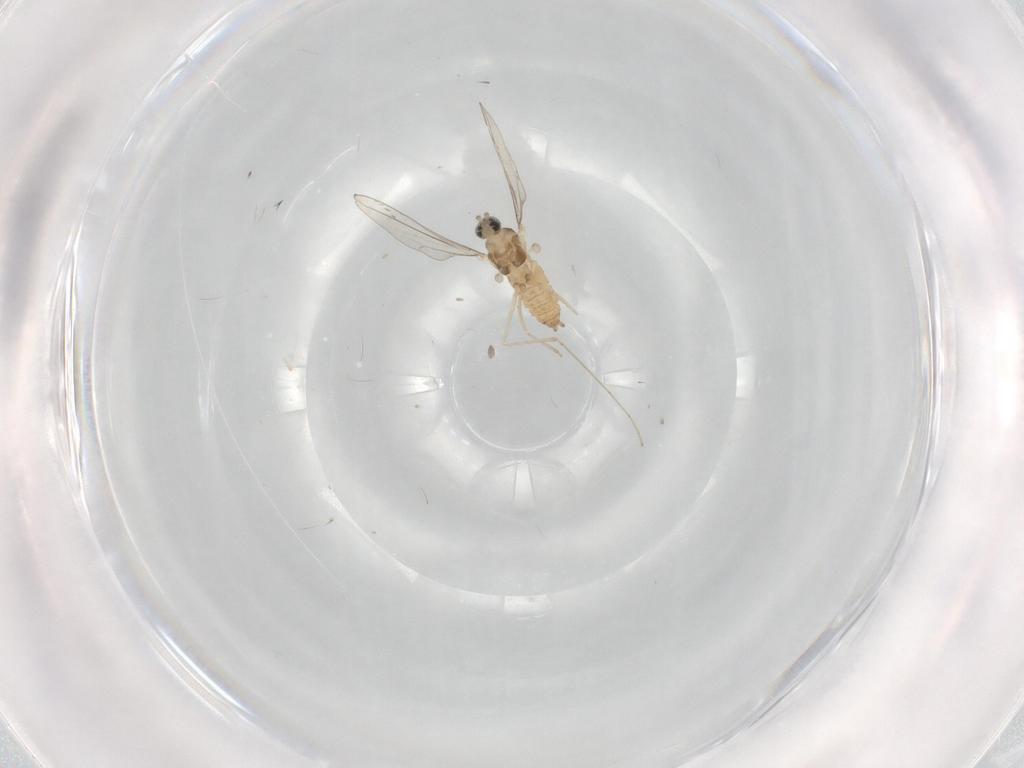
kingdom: Animalia
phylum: Arthropoda
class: Insecta
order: Diptera
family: Cecidomyiidae
